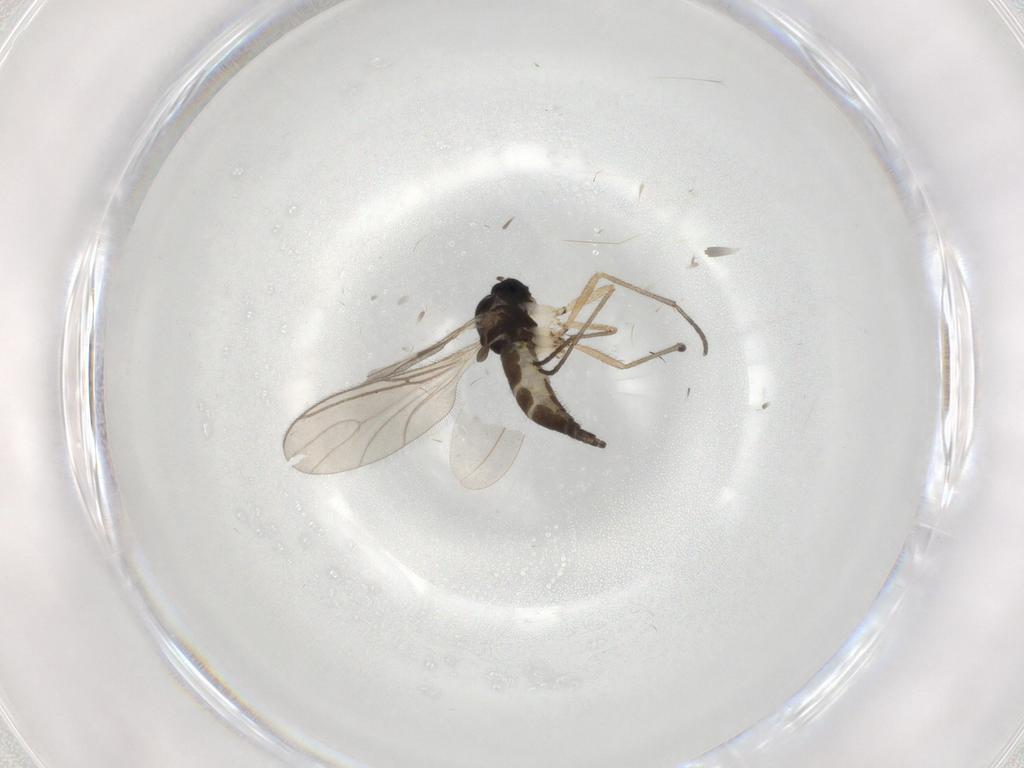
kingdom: Animalia
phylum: Arthropoda
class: Insecta
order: Diptera
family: Sciaridae
